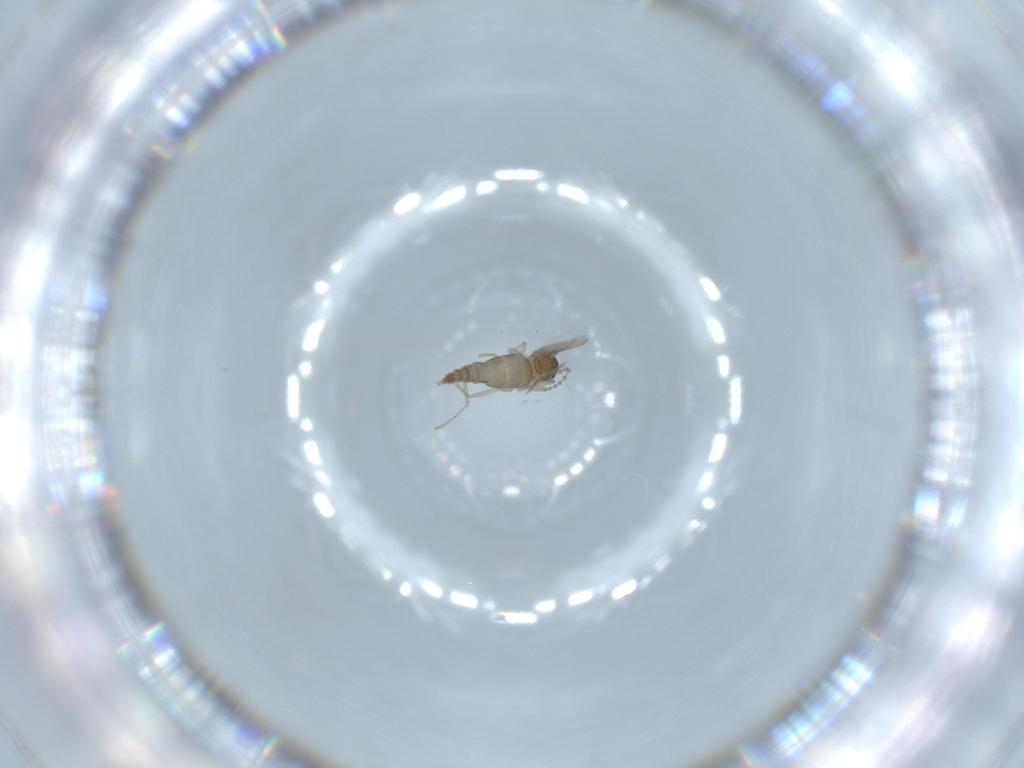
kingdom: Animalia
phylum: Arthropoda
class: Insecta
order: Diptera
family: Cecidomyiidae
